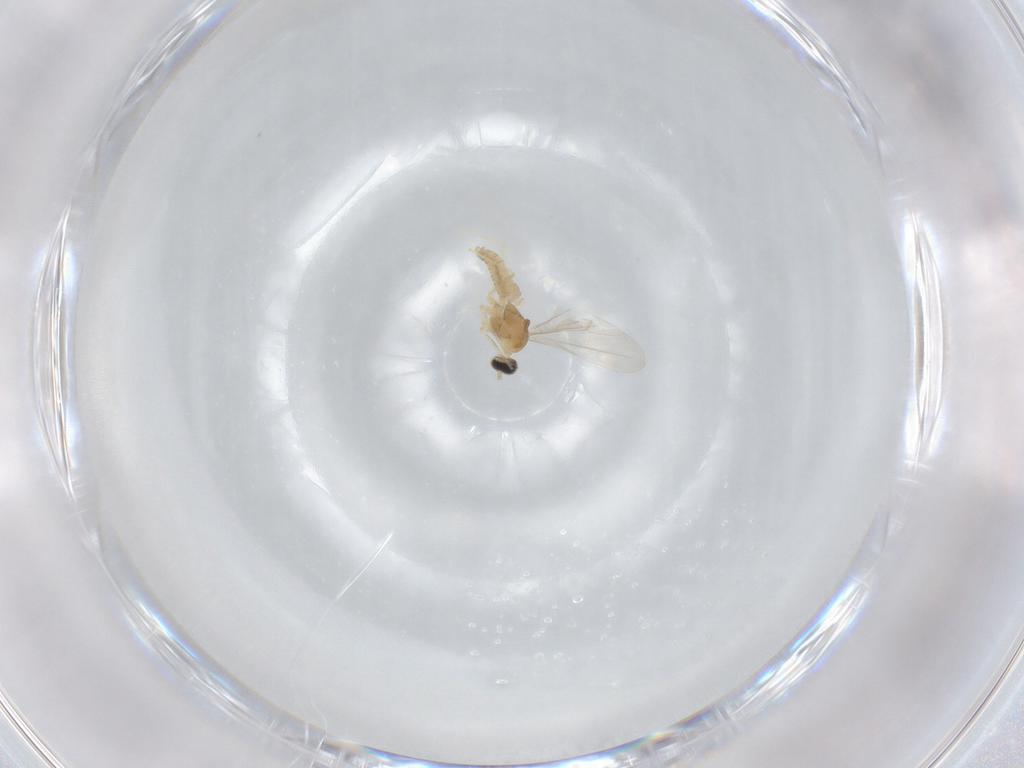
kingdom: Animalia
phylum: Arthropoda
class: Insecta
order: Diptera
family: Cecidomyiidae
